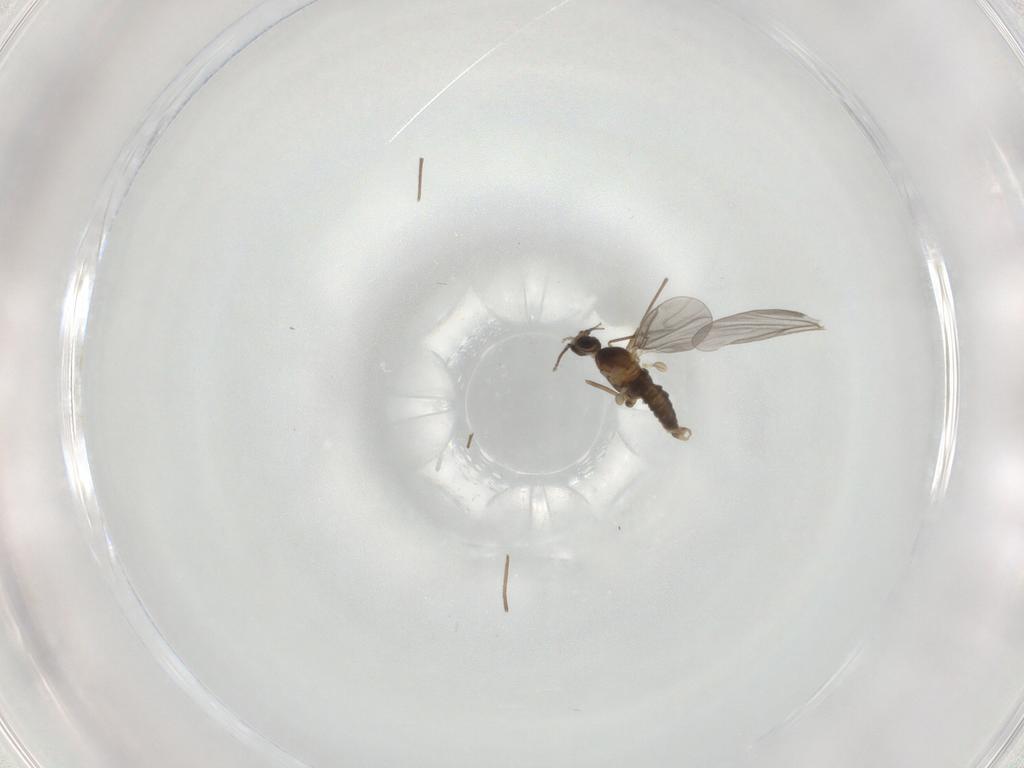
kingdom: Animalia
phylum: Arthropoda
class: Insecta
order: Diptera
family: Cecidomyiidae
